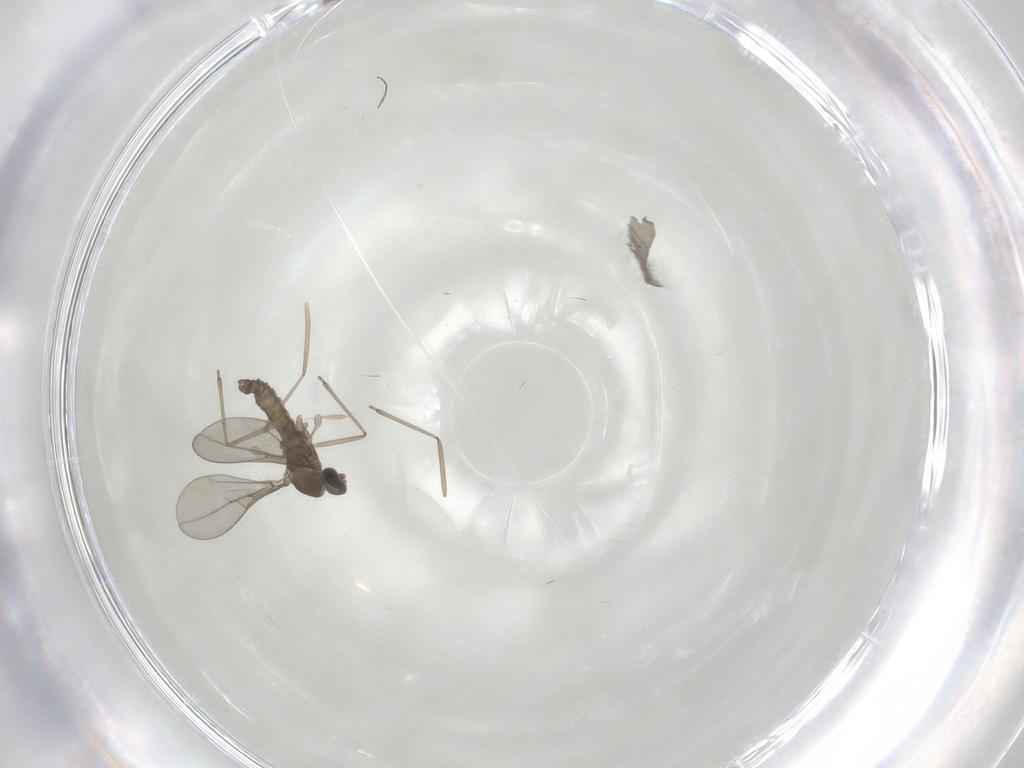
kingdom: Animalia
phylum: Arthropoda
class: Insecta
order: Diptera
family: Cecidomyiidae
